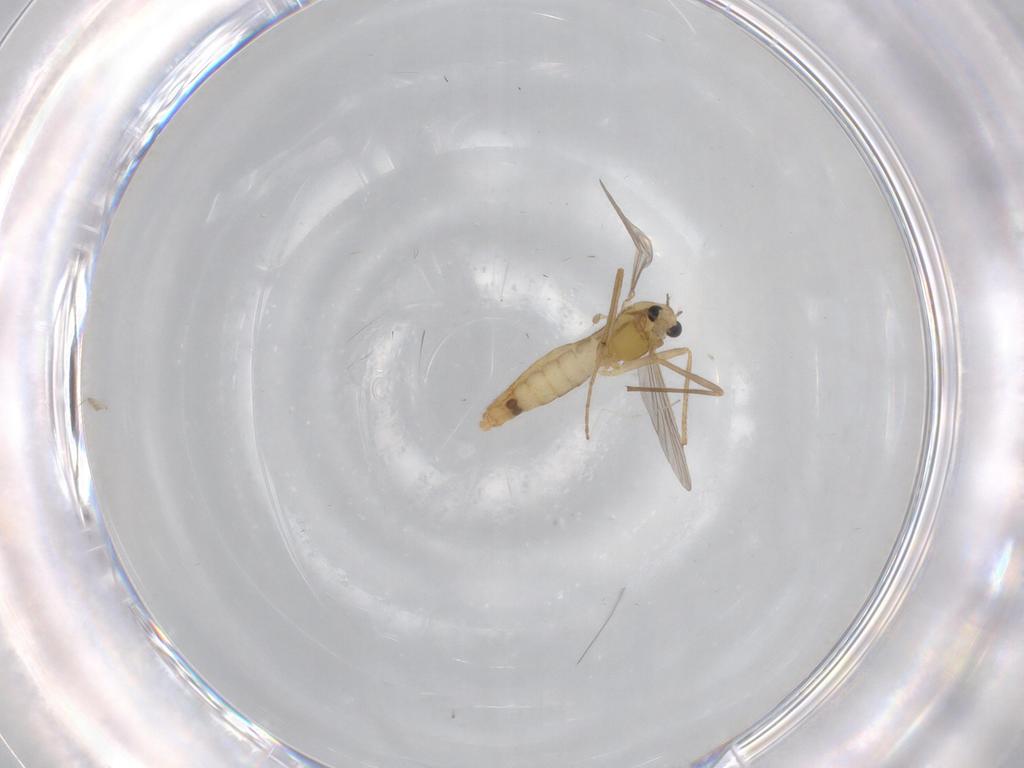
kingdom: Animalia
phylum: Arthropoda
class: Insecta
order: Diptera
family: Chironomidae
